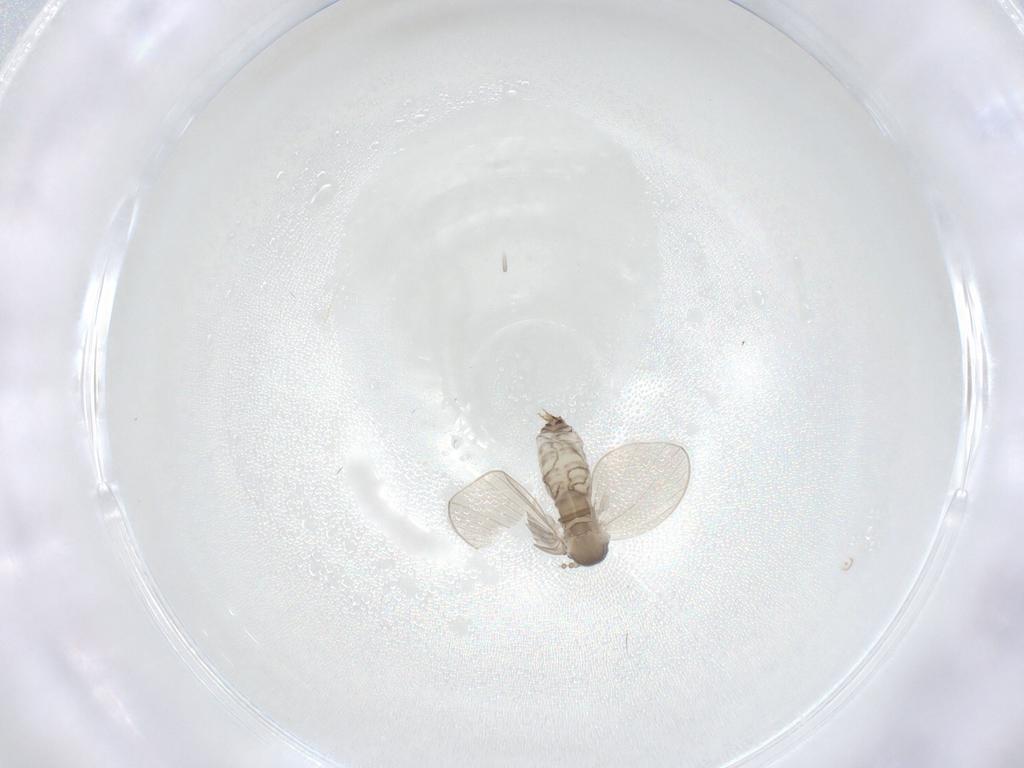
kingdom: Animalia
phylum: Arthropoda
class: Insecta
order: Diptera
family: Psychodidae
